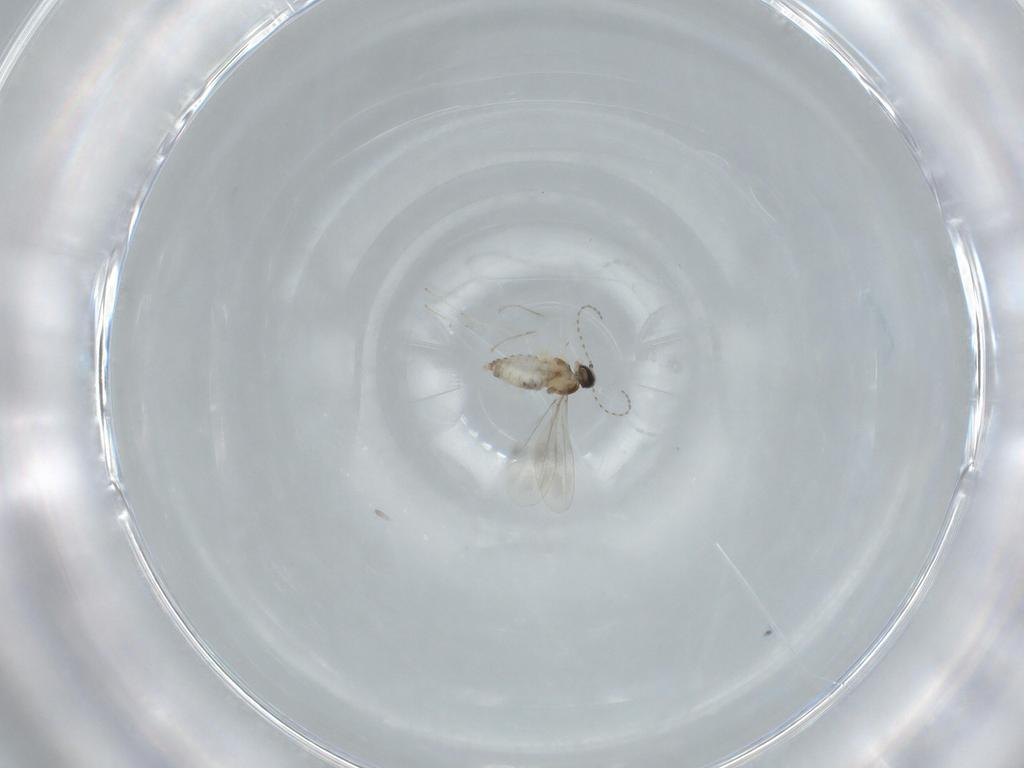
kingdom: Animalia
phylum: Arthropoda
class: Insecta
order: Diptera
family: Cecidomyiidae
